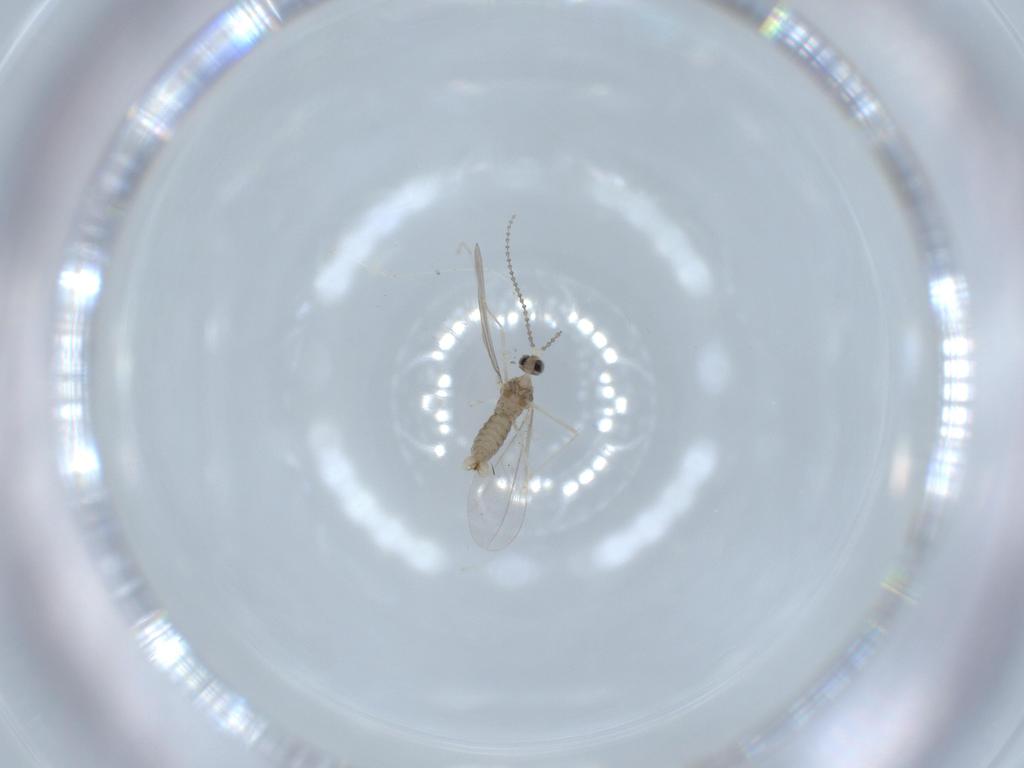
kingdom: Animalia
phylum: Arthropoda
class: Insecta
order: Diptera
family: Cecidomyiidae
